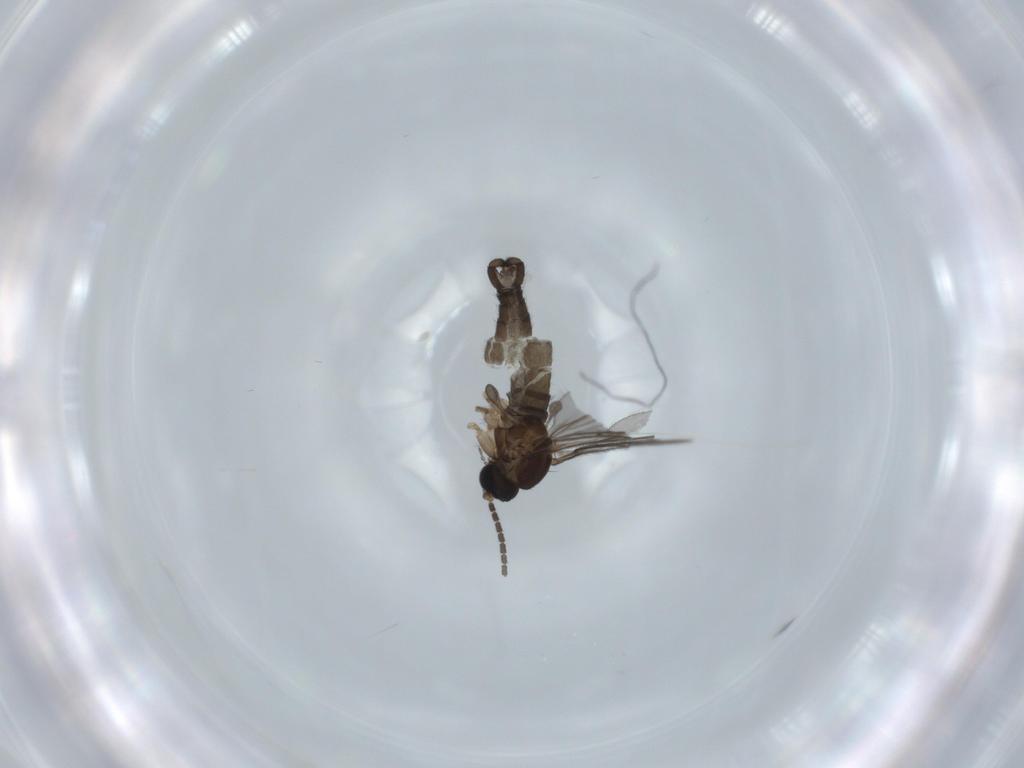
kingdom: Animalia
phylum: Arthropoda
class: Insecta
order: Diptera
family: Sciaridae
